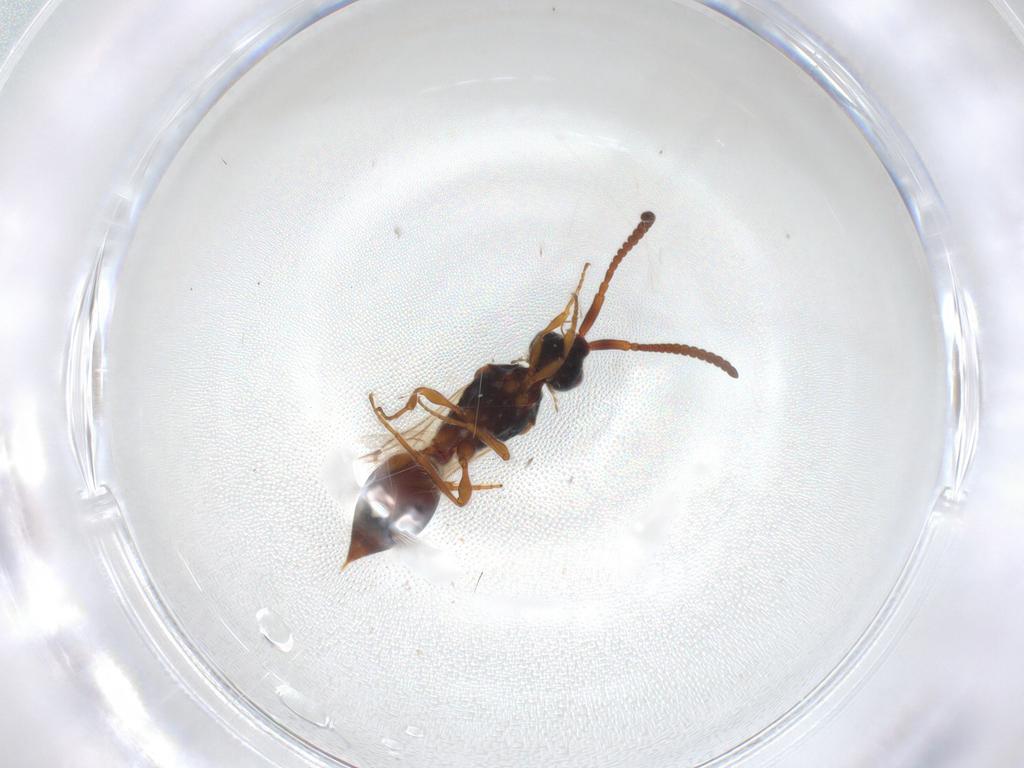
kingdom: Animalia
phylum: Arthropoda
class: Insecta
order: Hymenoptera
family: Diapriidae
